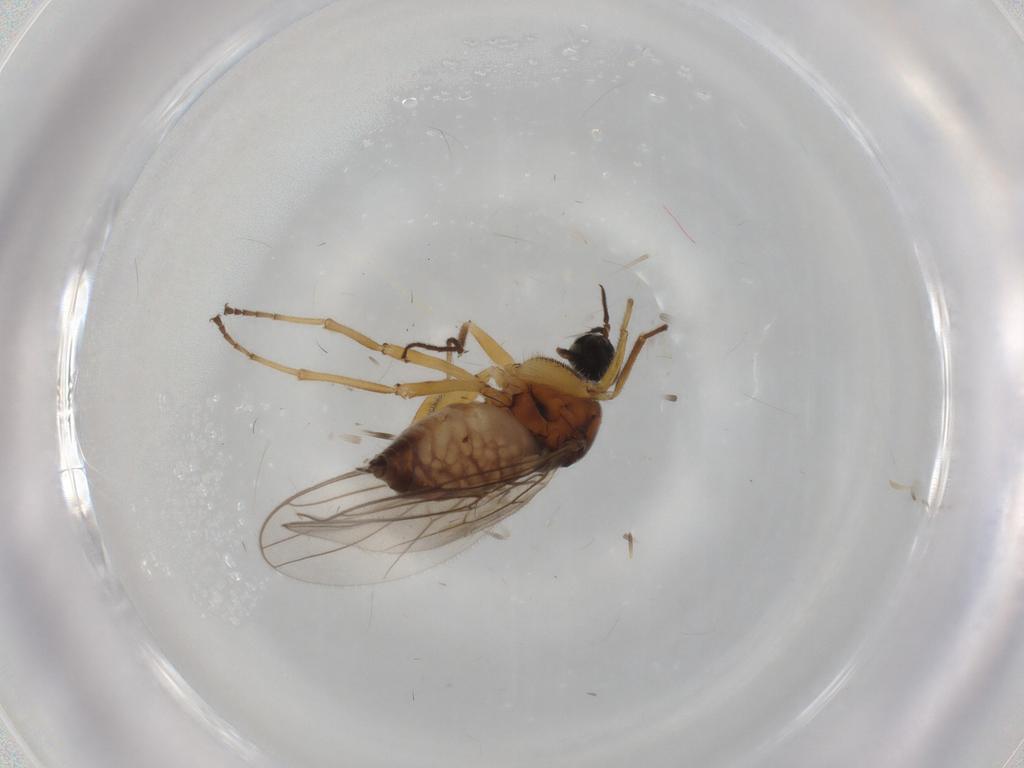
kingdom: Animalia
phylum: Arthropoda
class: Insecta
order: Diptera
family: Hybotidae
